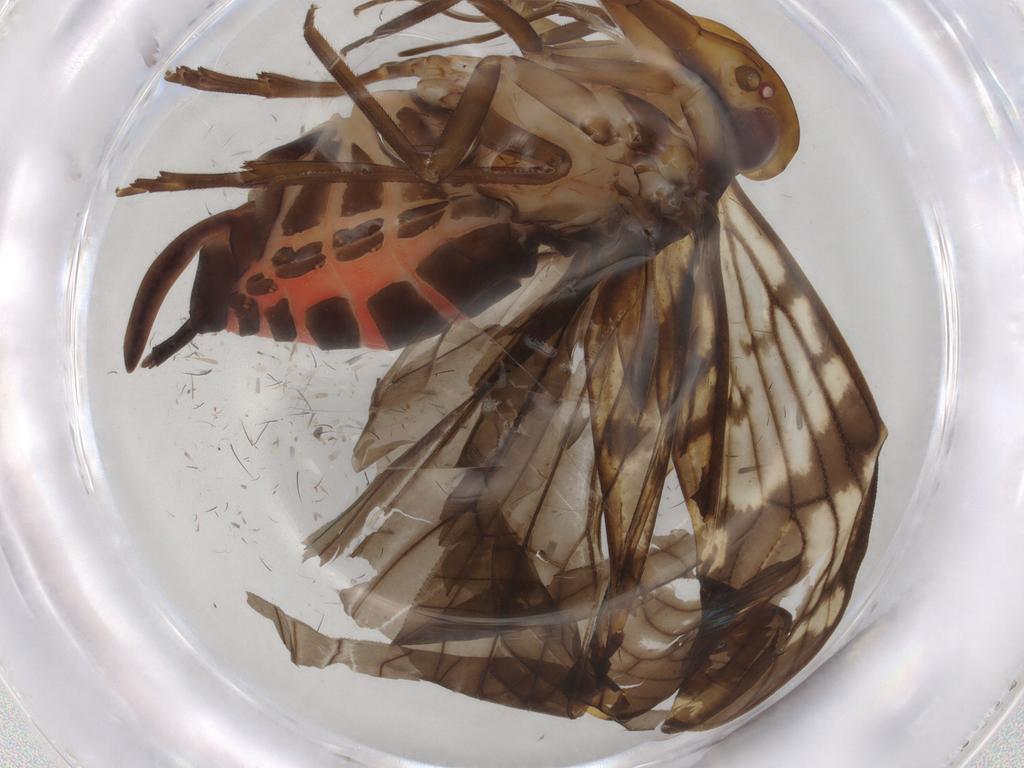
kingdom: Animalia
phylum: Arthropoda
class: Insecta
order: Hemiptera
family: Cixiidae
